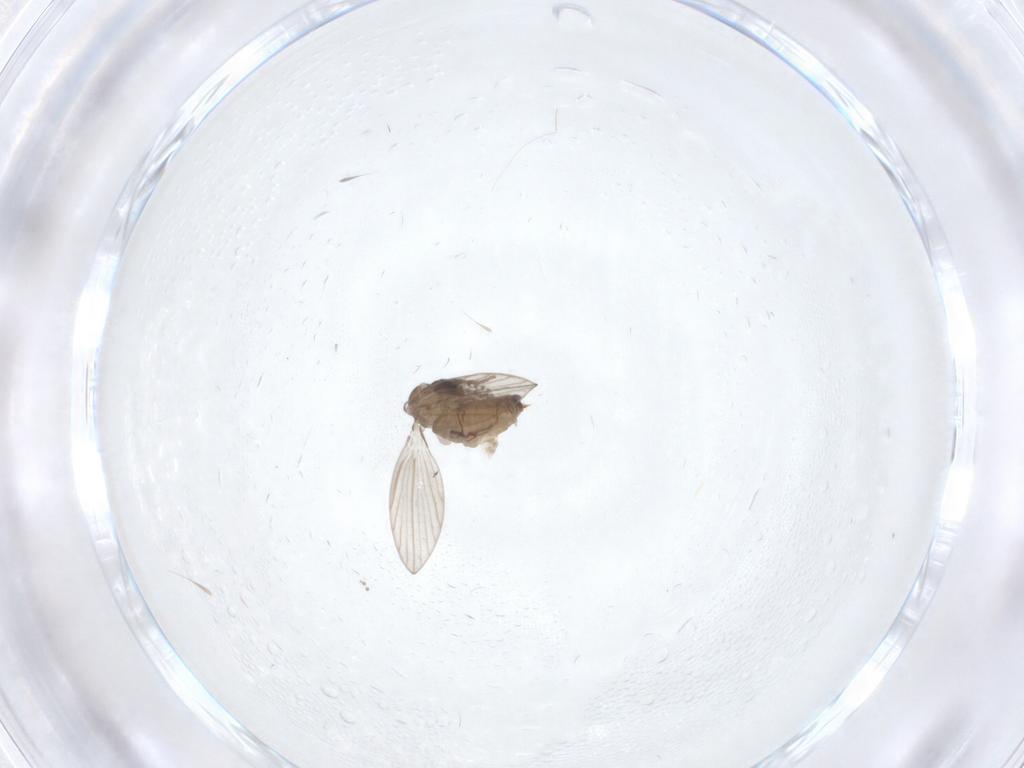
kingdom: Animalia
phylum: Arthropoda
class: Insecta
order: Diptera
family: Psychodidae
